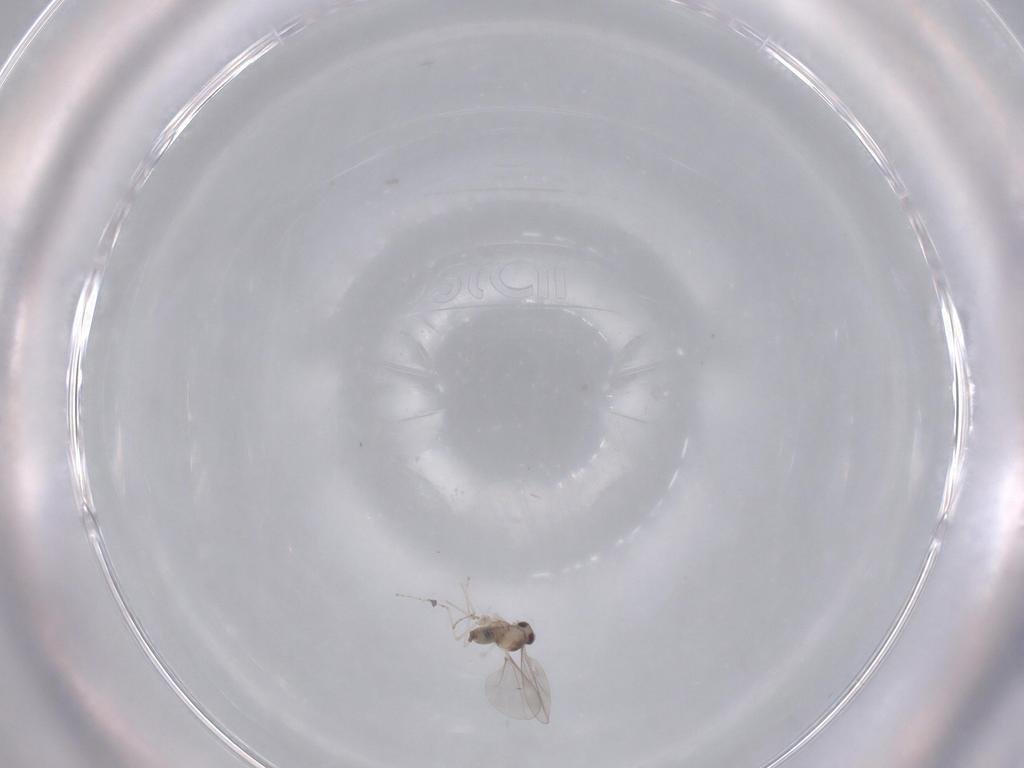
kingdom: Animalia
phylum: Arthropoda
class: Insecta
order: Diptera
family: Cecidomyiidae
